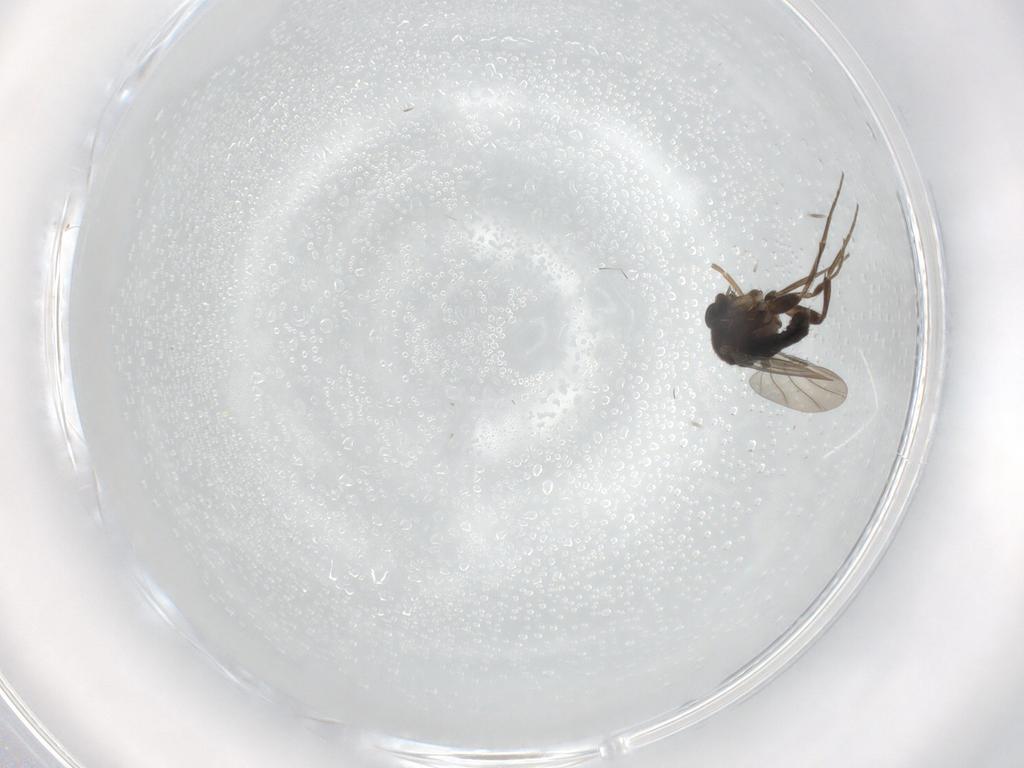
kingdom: Animalia
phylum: Arthropoda
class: Insecta
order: Diptera
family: Phoridae
